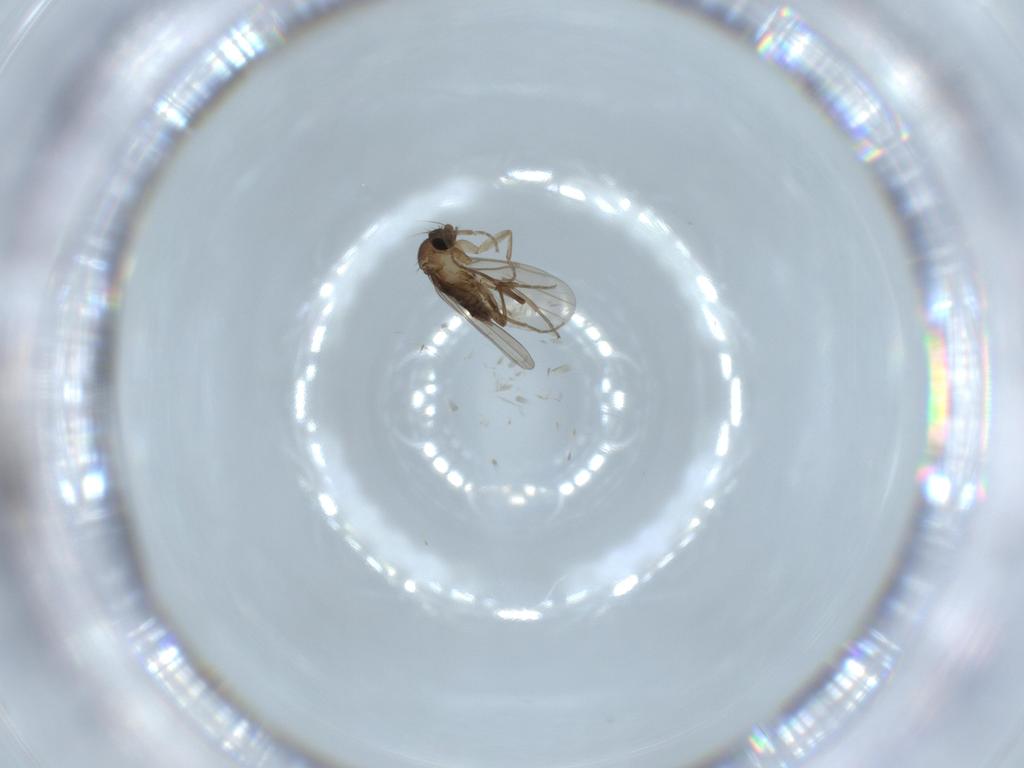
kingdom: Animalia
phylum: Arthropoda
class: Insecta
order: Diptera
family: Phoridae
